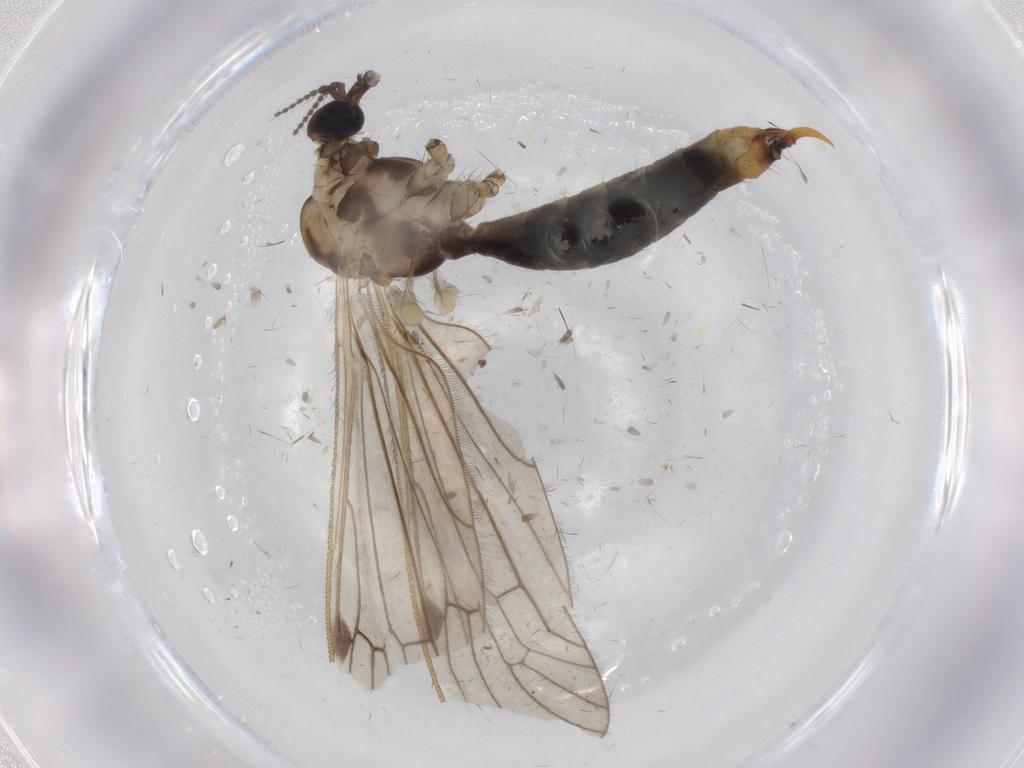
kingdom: Animalia
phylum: Arthropoda
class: Insecta
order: Diptera
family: Limoniidae
